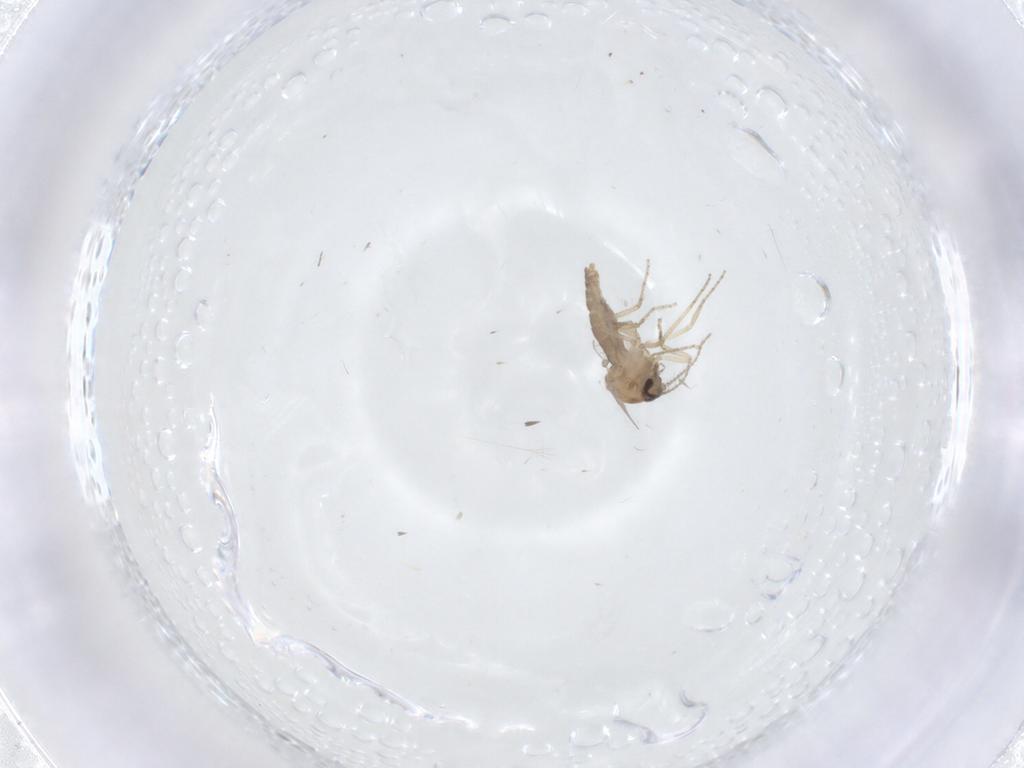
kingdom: Animalia
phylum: Arthropoda
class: Insecta
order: Diptera
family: Ceratopogonidae
